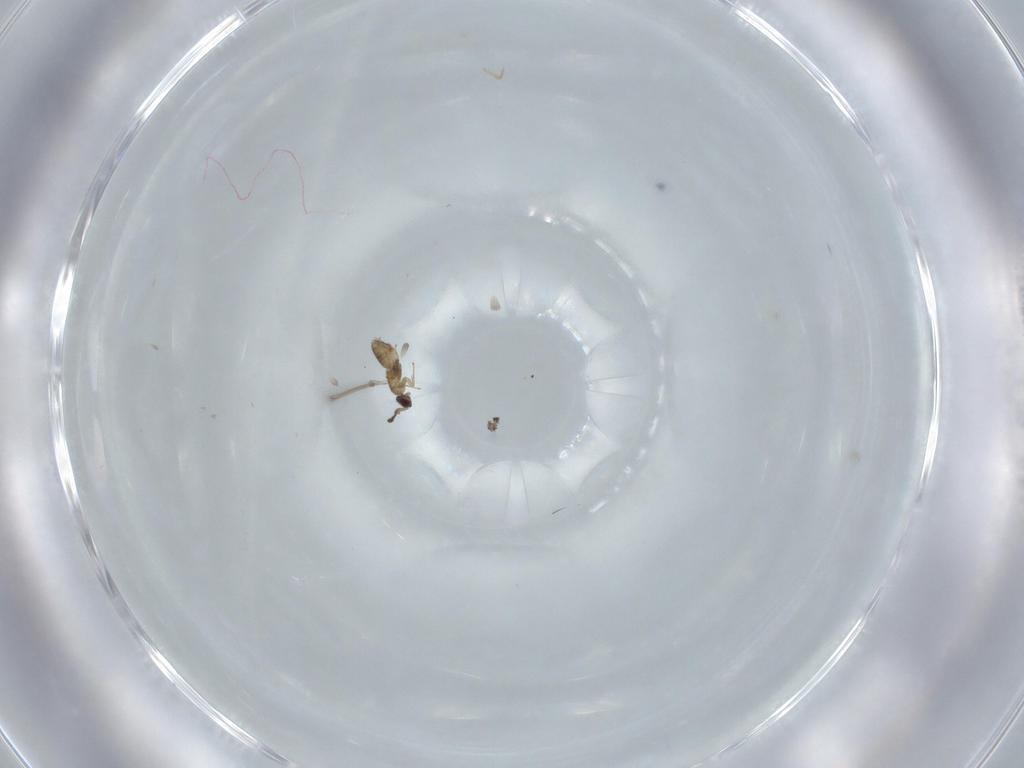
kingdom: Animalia
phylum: Arthropoda
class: Insecta
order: Hymenoptera
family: Mymaridae
